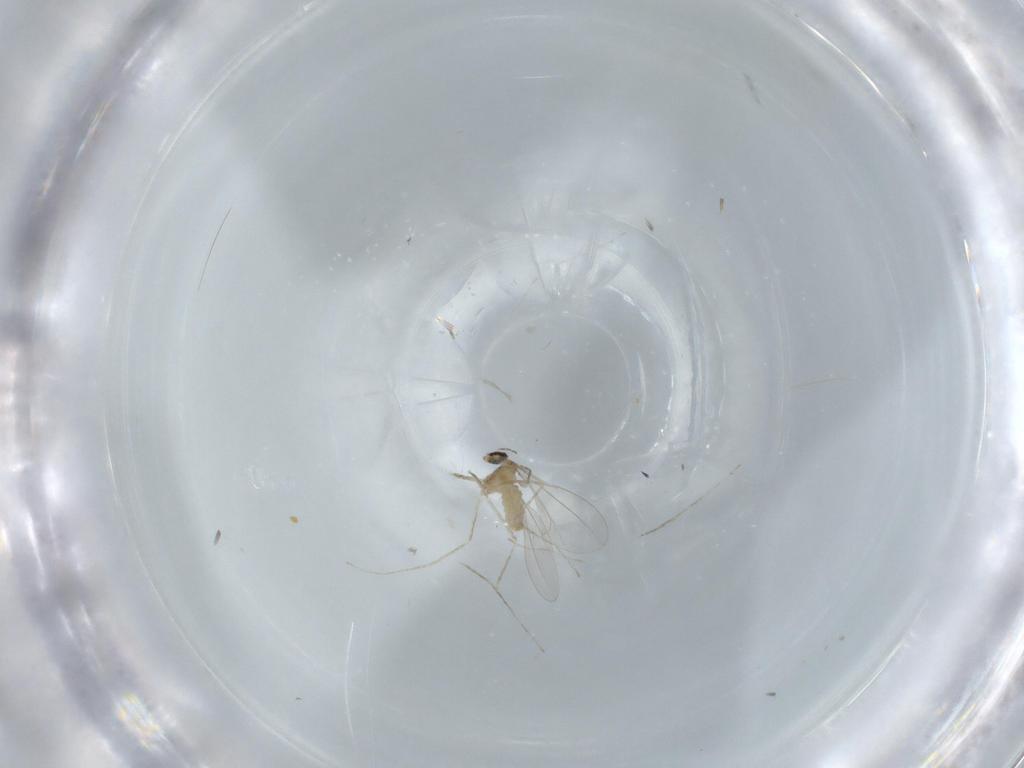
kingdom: Animalia
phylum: Arthropoda
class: Insecta
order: Diptera
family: Cecidomyiidae
